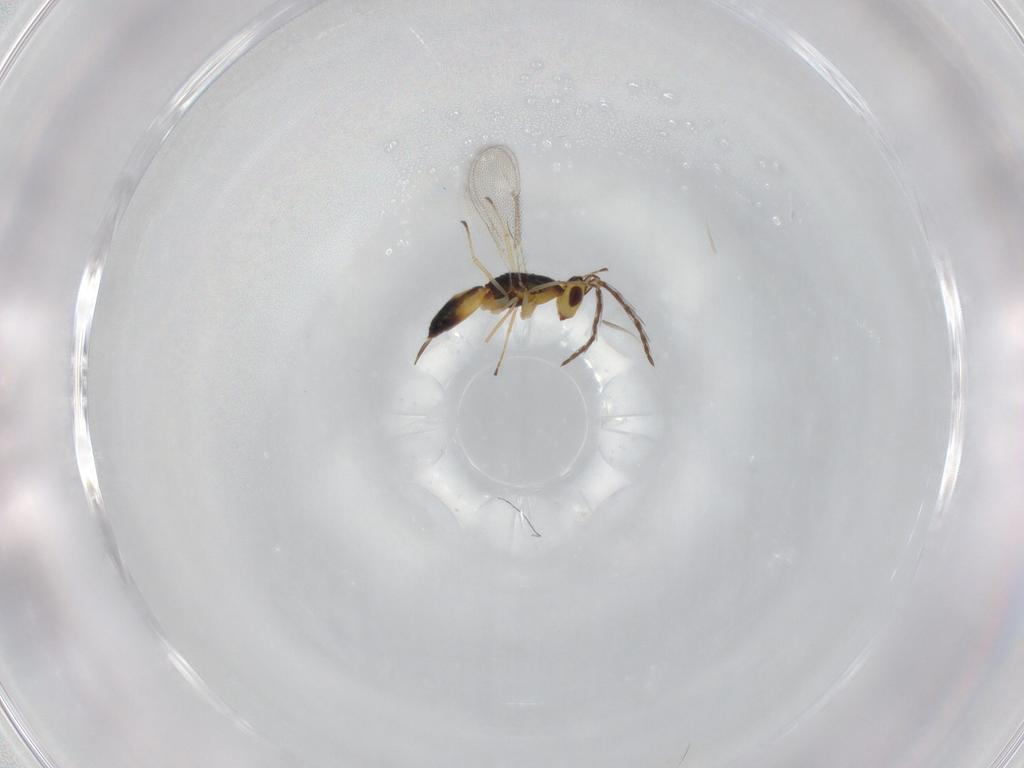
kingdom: Animalia
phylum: Arthropoda
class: Insecta
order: Hymenoptera
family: Eulophidae
